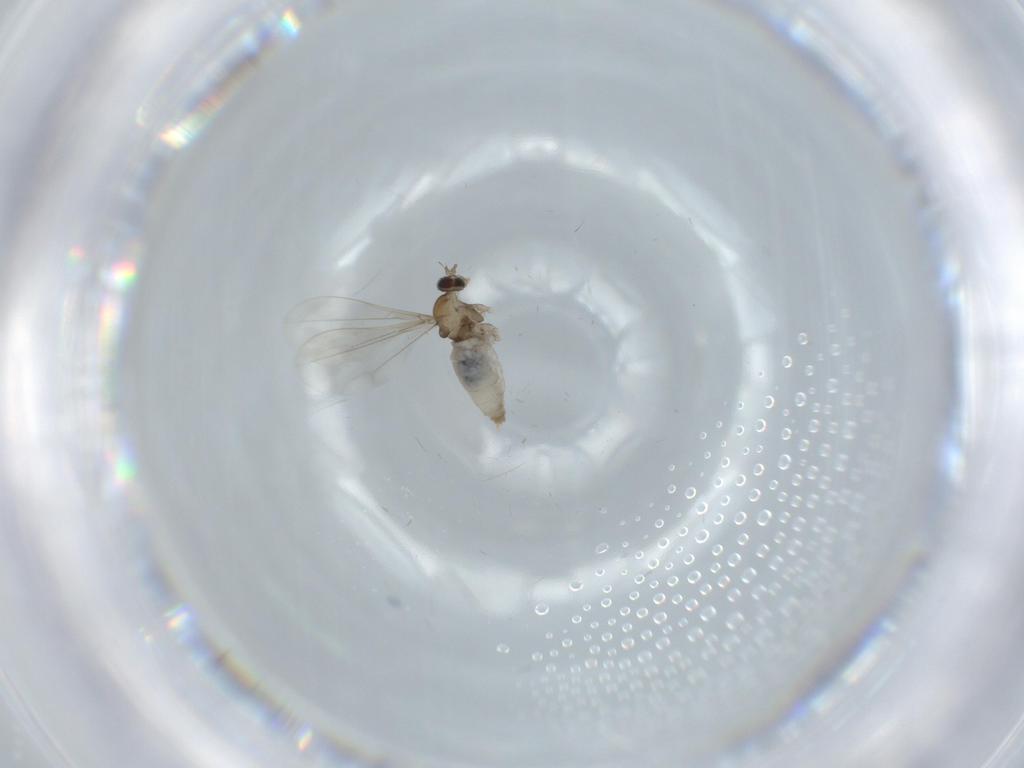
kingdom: Animalia
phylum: Arthropoda
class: Insecta
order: Diptera
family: Cecidomyiidae
